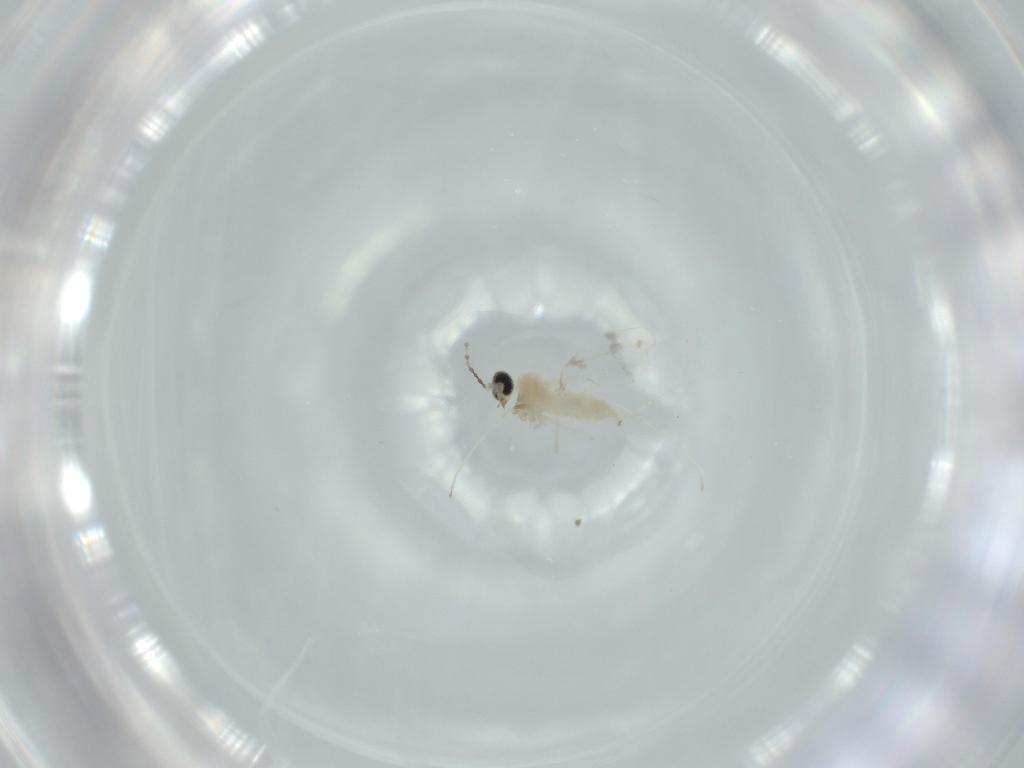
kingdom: Animalia
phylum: Arthropoda
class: Insecta
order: Diptera
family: Cecidomyiidae
